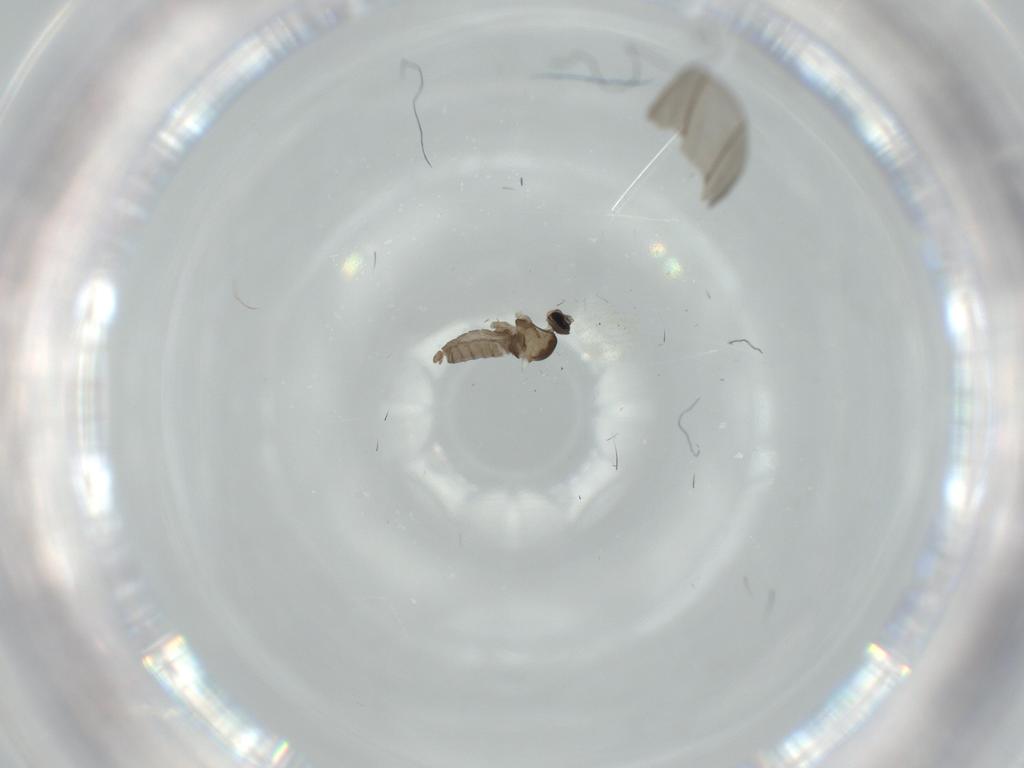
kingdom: Animalia
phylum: Arthropoda
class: Insecta
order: Diptera
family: Cecidomyiidae
